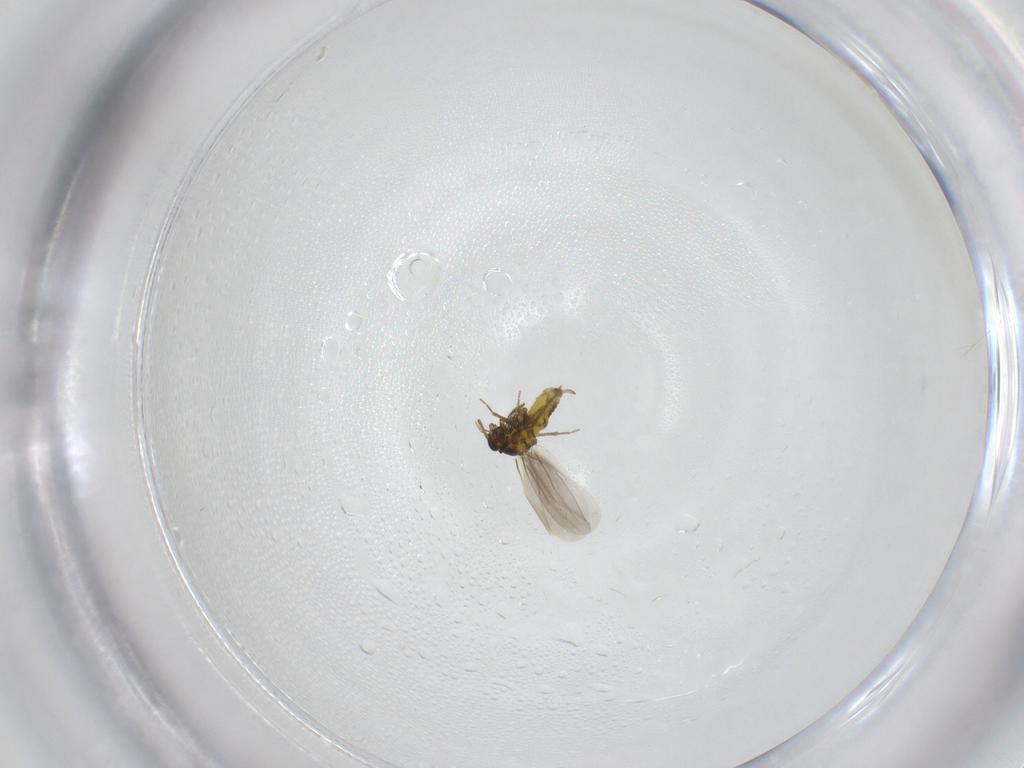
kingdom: Animalia
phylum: Arthropoda
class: Insecta
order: Hemiptera
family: Aleyrodidae
